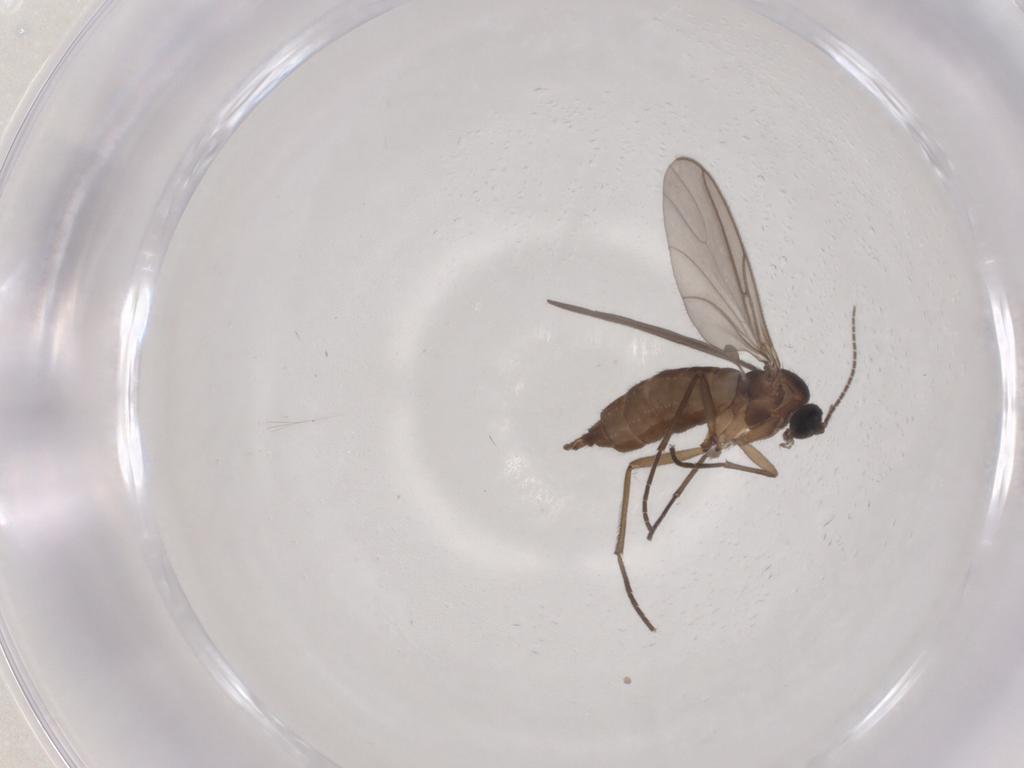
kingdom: Animalia
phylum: Arthropoda
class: Insecta
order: Diptera
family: Sciaridae
